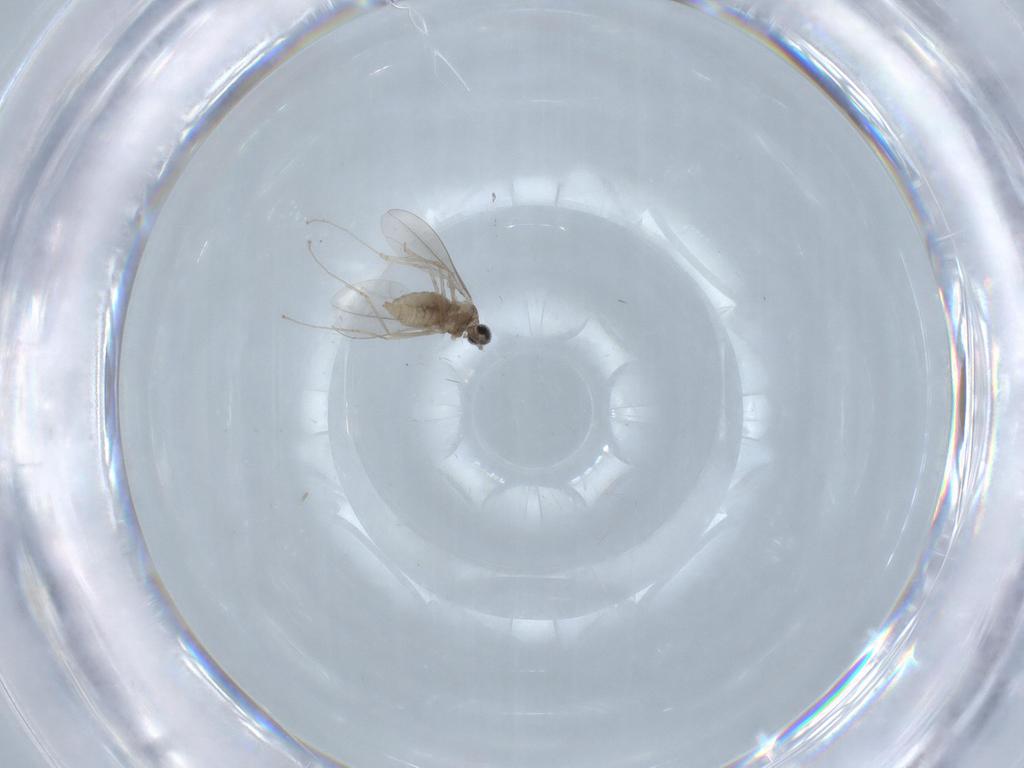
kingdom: Animalia
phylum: Arthropoda
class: Insecta
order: Diptera
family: Cecidomyiidae
